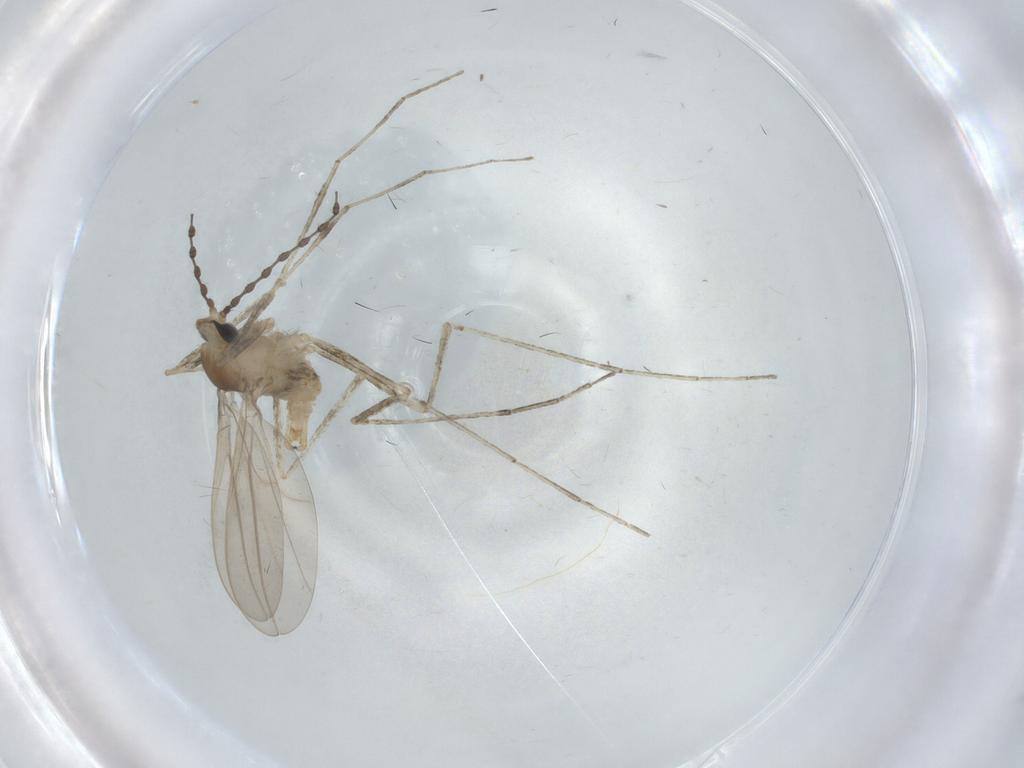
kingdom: Animalia
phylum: Arthropoda
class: Insecta
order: Diptera
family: Cecidomyiidae
